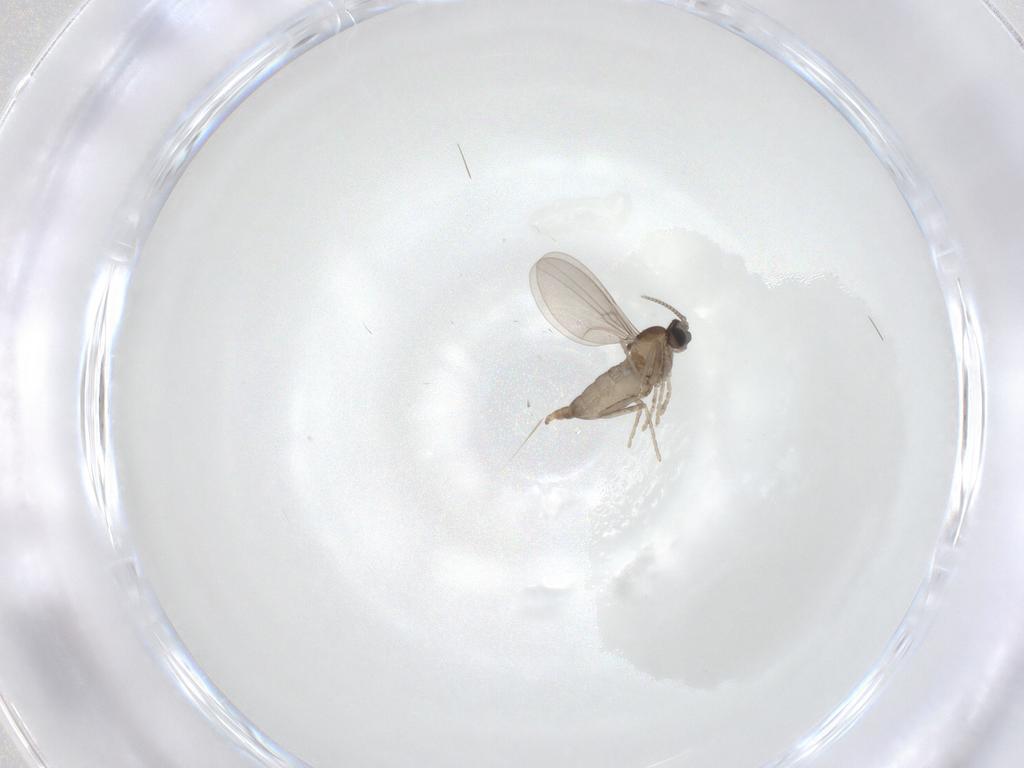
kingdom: Animalia
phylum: Arthropoda
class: Insecta
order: Diptera
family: Cecidomyiidae
